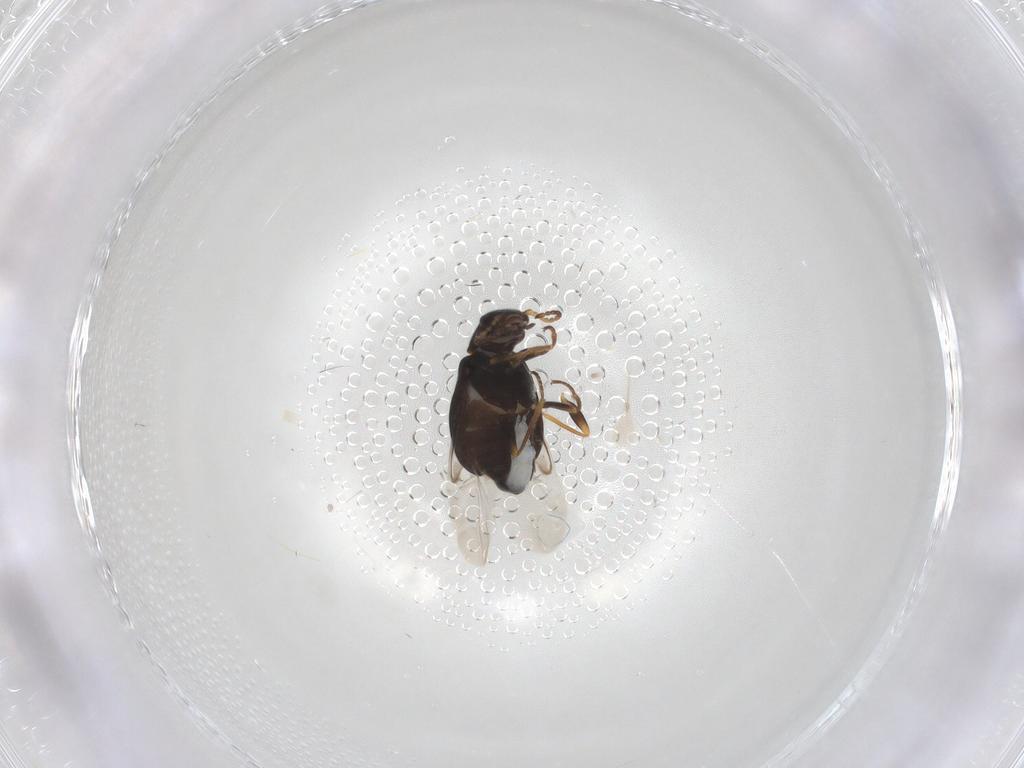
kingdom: Animalia
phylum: Arthropoda
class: Insecta
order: Coleoptera
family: Melyridae
